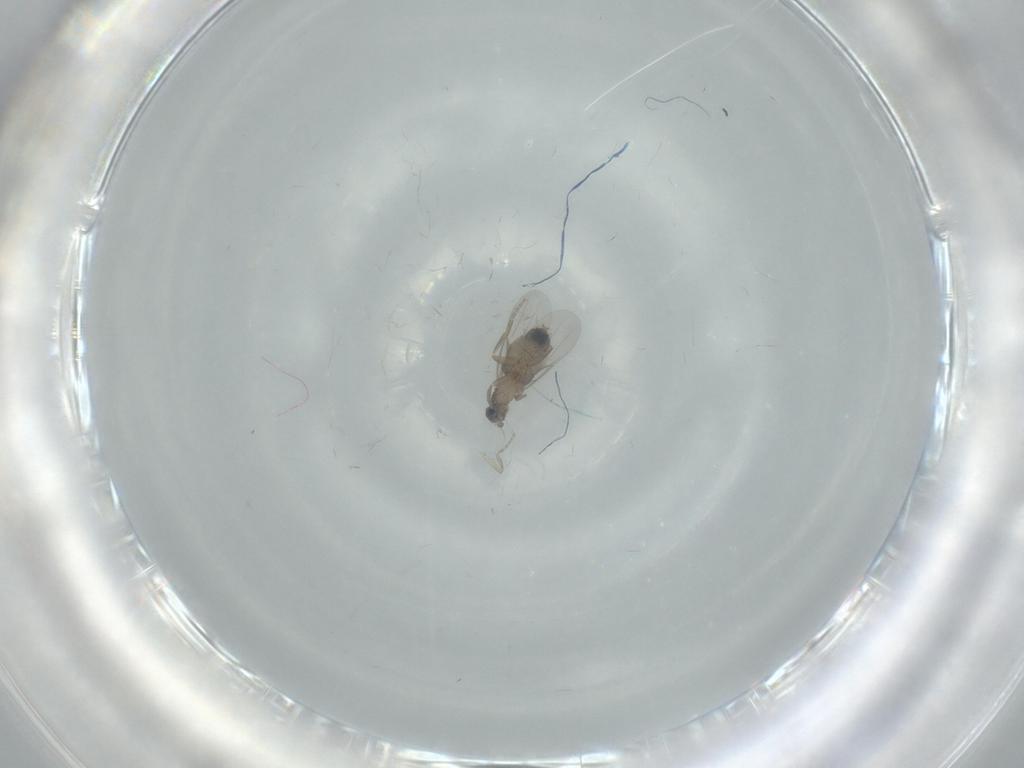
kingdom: Animalia
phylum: Arthropoda
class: Insecta
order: Diptera
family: Phoridae
